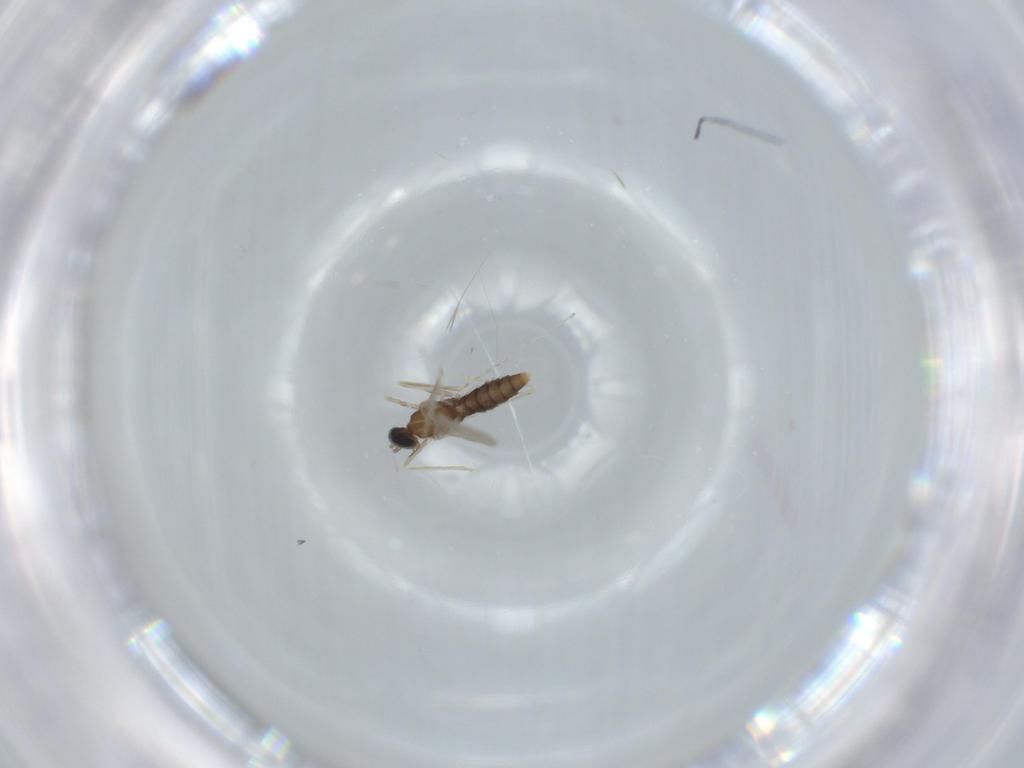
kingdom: Animalia
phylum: Arthropoda
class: Insecta
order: Diptera
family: Cecidomyiidae
